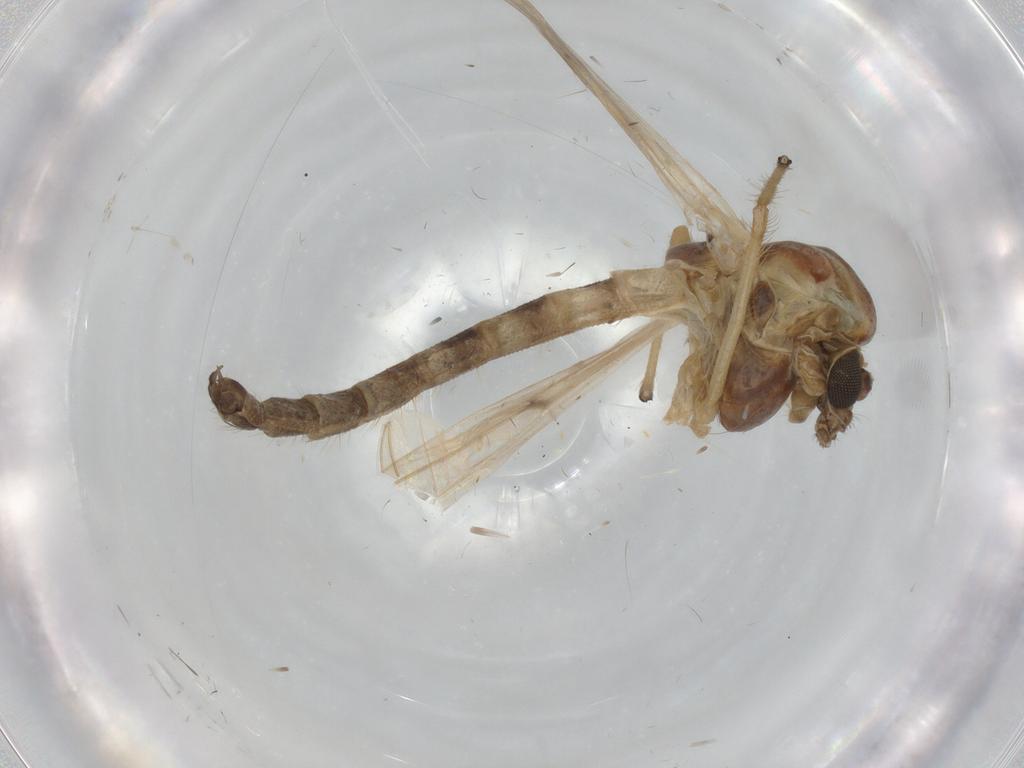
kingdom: Animalia
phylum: Arthropoda
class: Insecta
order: Diptera
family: Chironomidae
